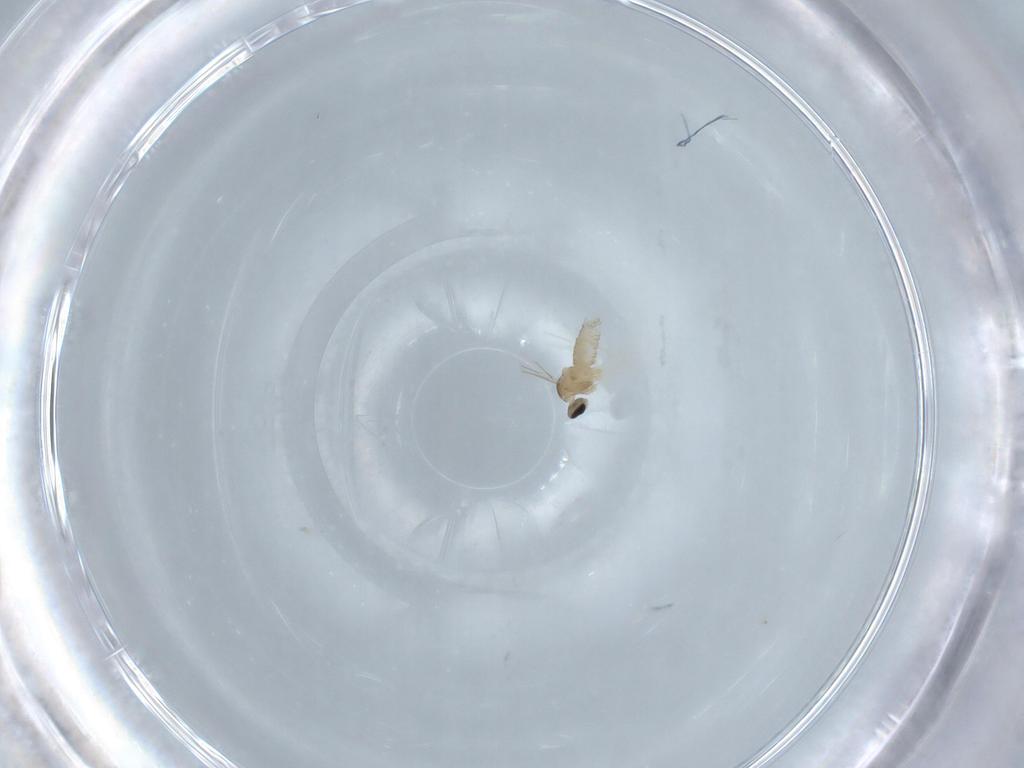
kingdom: Animalia
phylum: Arthropoda
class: Insecta
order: Diptera
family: Cecidomyiidae
